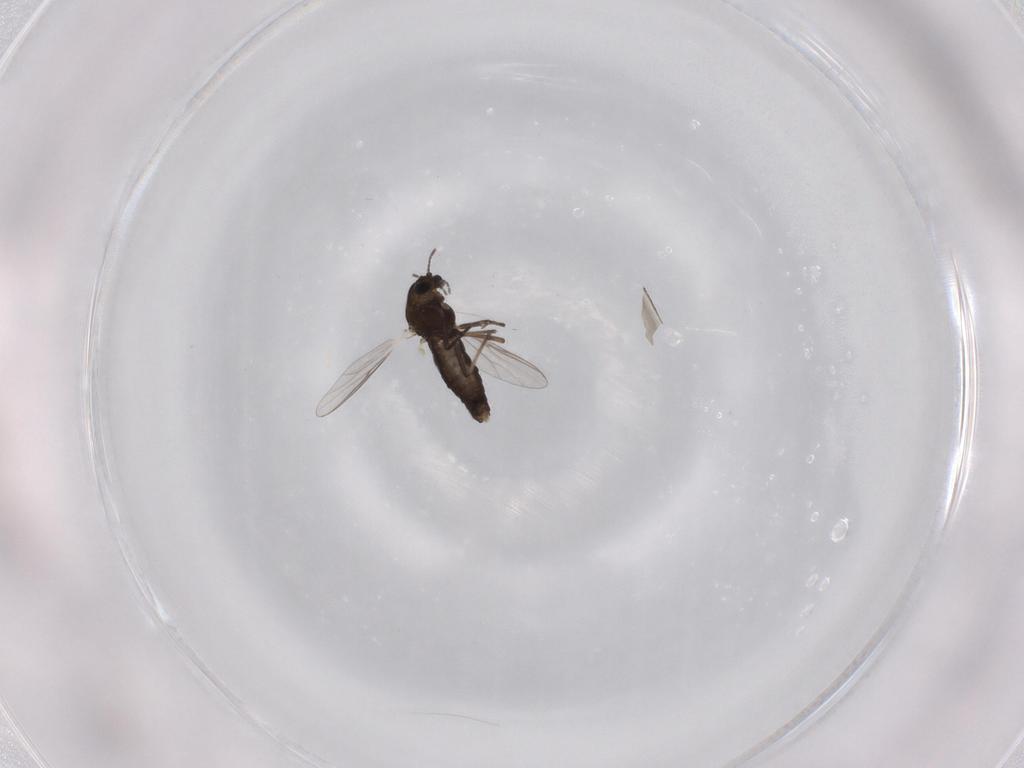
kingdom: Animalia
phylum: Arthropoda
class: Insecta
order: Diptera
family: Chironomidae
